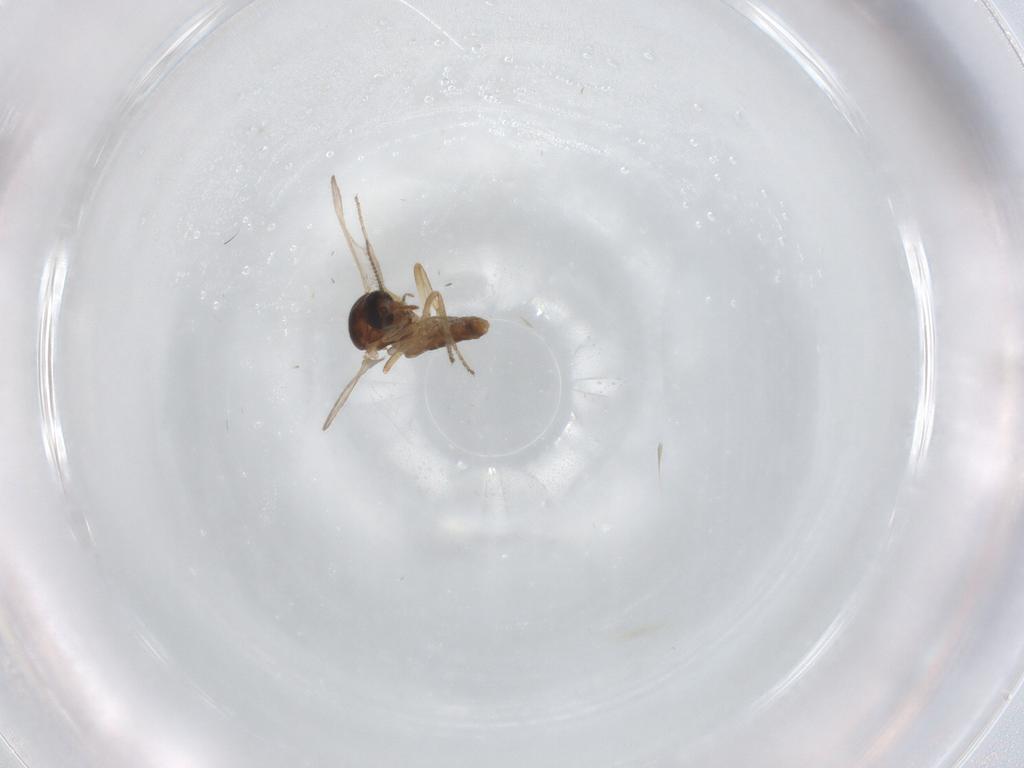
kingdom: Animalia
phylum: Arthropoda
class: Insecta
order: Diptera
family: Ceratopogonidae
